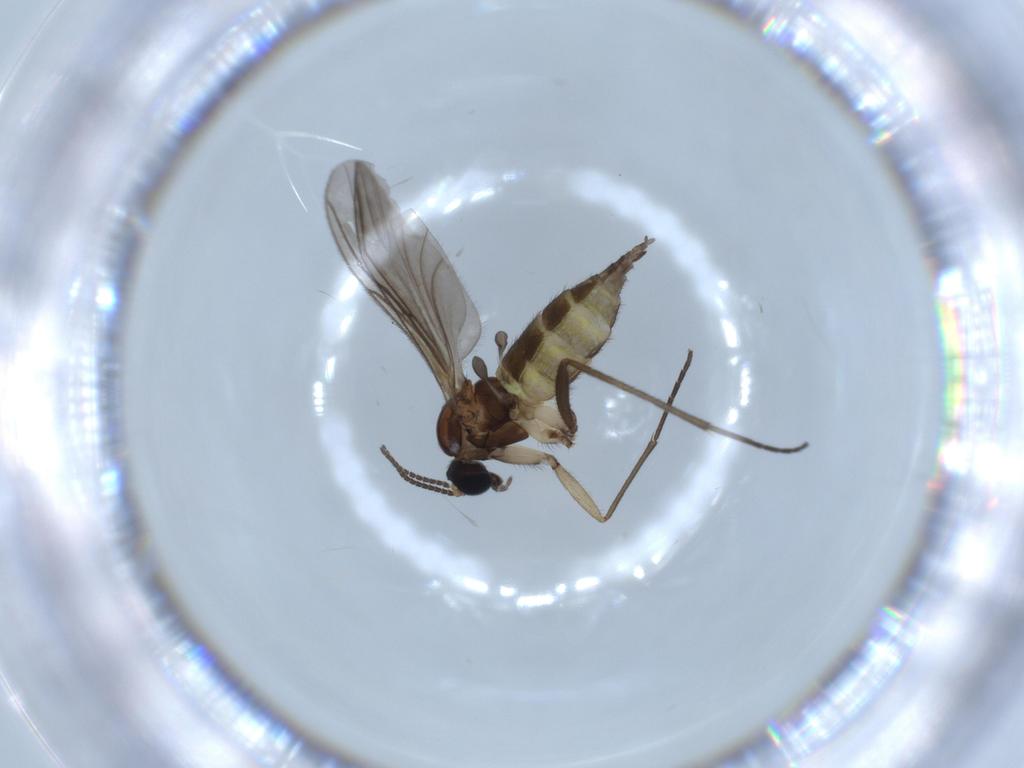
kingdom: Animalia
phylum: Arthropoda
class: Insecta
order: Diptera
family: Sciaridae
